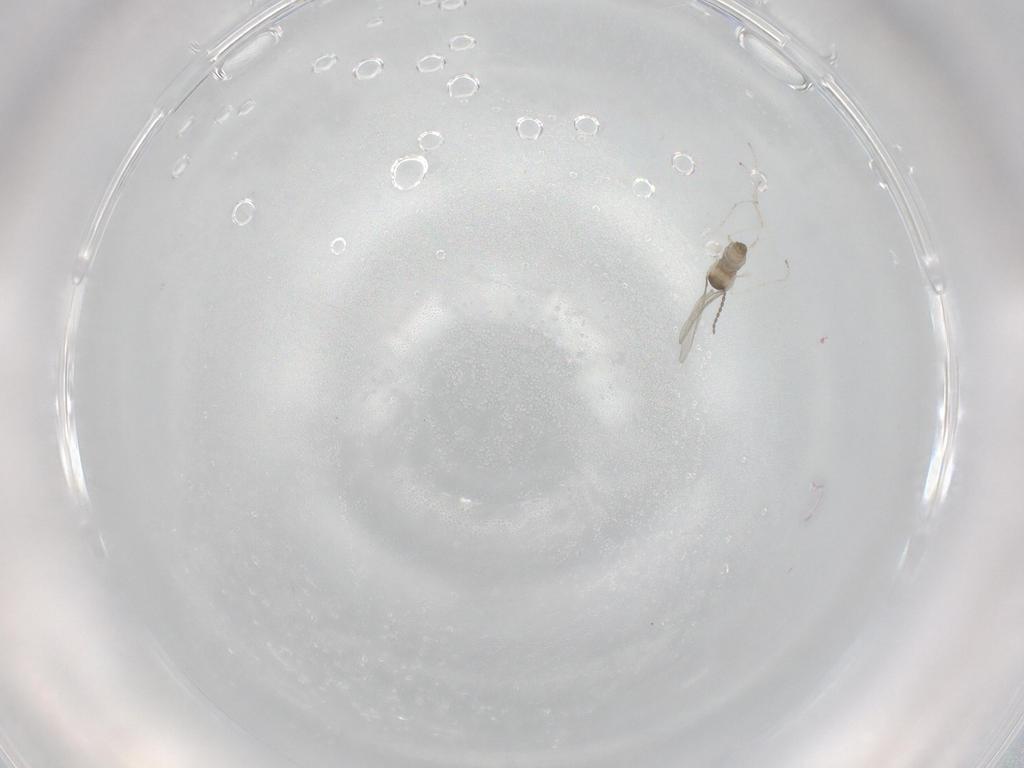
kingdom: Animalia
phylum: Arthropoda
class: Insecta
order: Diptera
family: Cecidomyiidae
